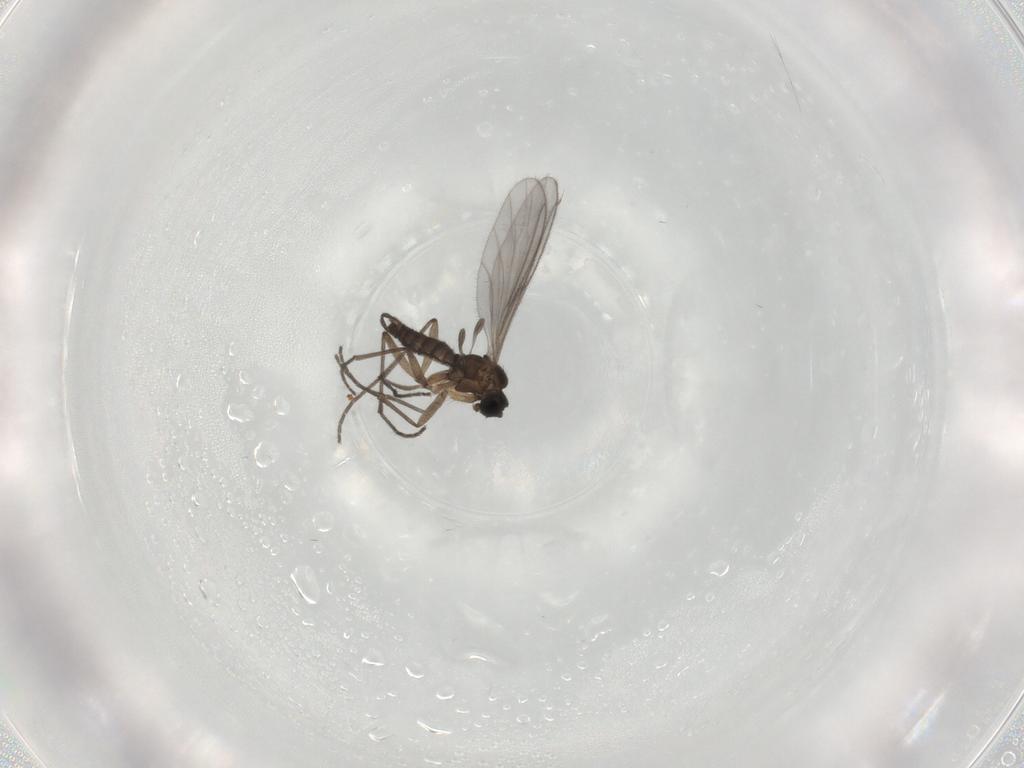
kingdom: Animalia
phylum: Arthropoda
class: Insecta
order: Diptera
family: Sciaridae
